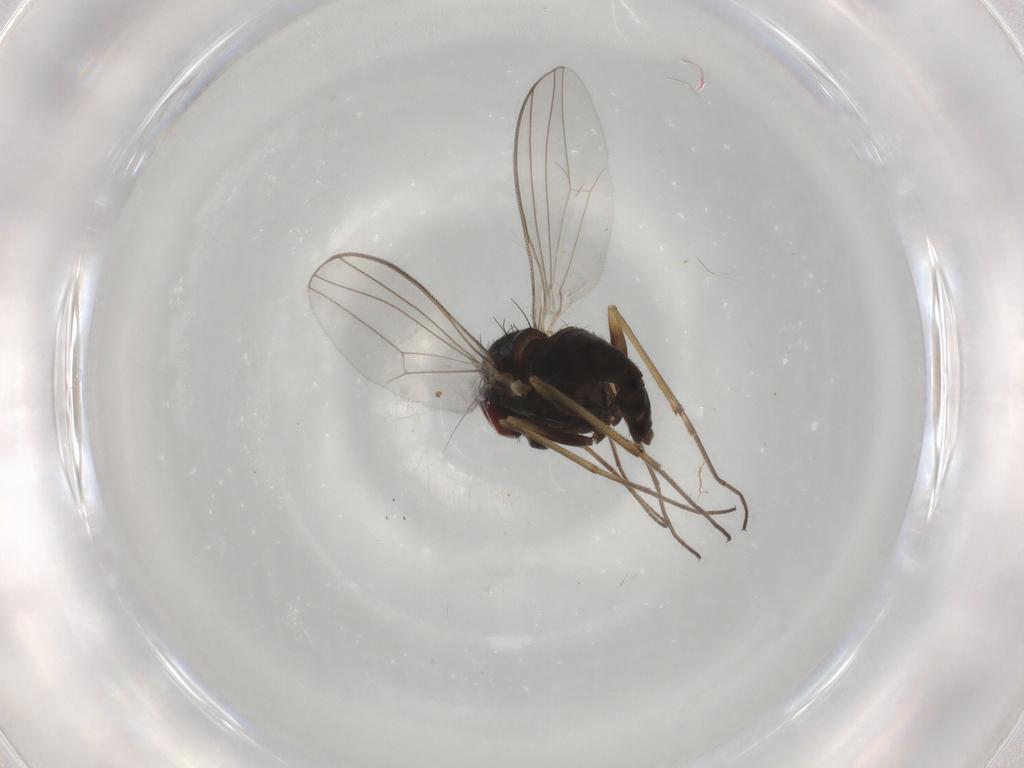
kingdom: Animalia
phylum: Arthropoda
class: Insecta
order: Diptera
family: Dolichopodidae
